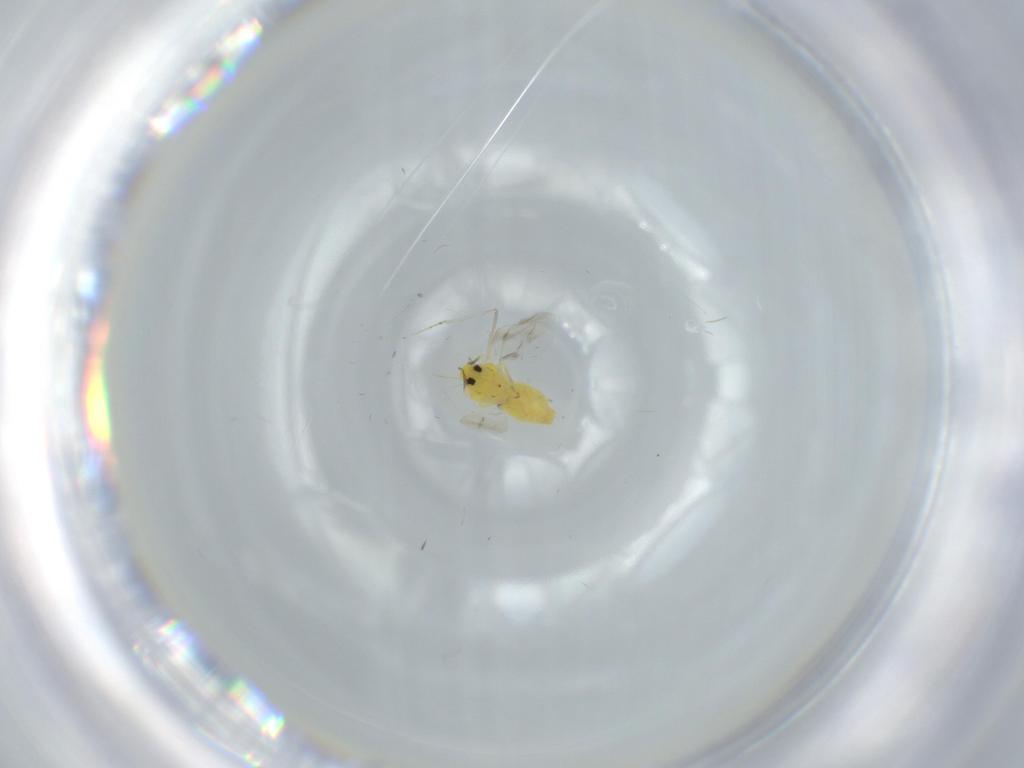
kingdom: Animalia
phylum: Arthropoda
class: Insecta
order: Hemiptera
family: Aleyrodidae
